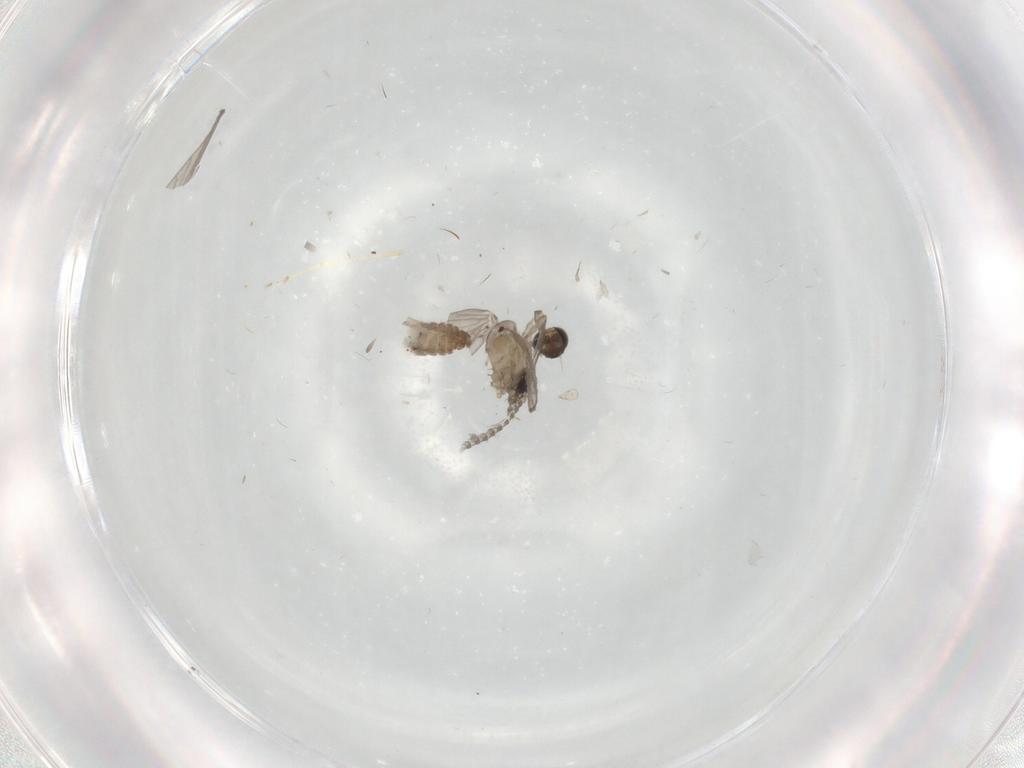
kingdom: Animalia
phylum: Arthropoda
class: Insecta
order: Diptera
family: Chironomidae
